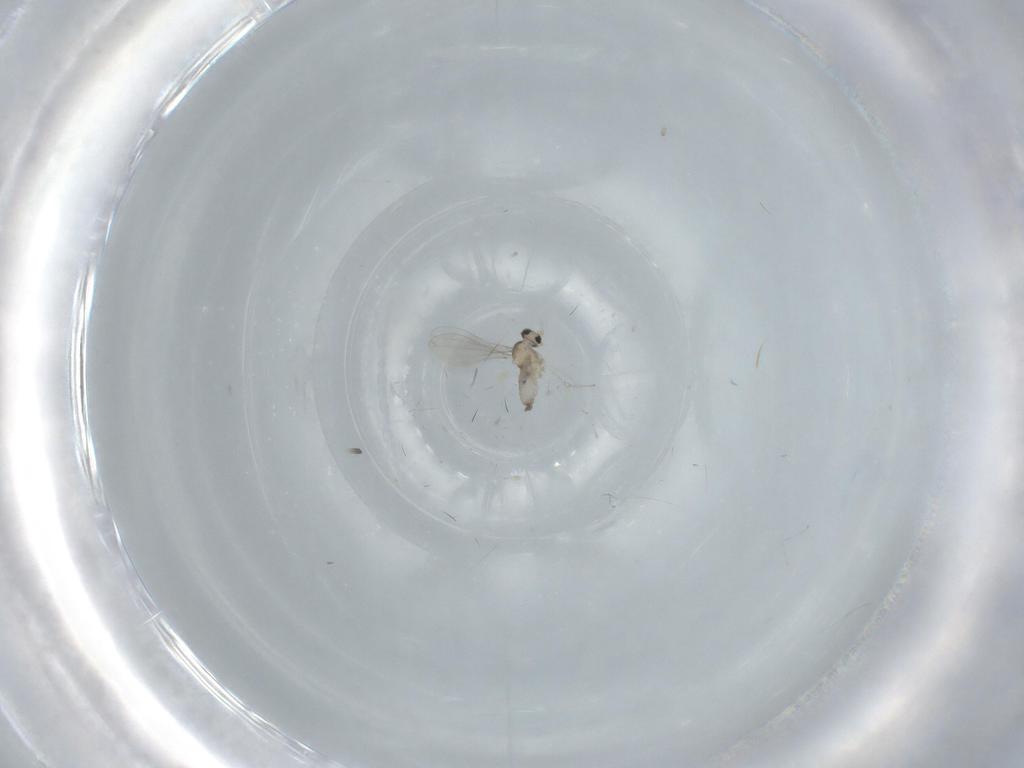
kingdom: Animalia
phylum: Arthropoda
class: Insecta
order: Diptera
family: Cecidomyiidae
